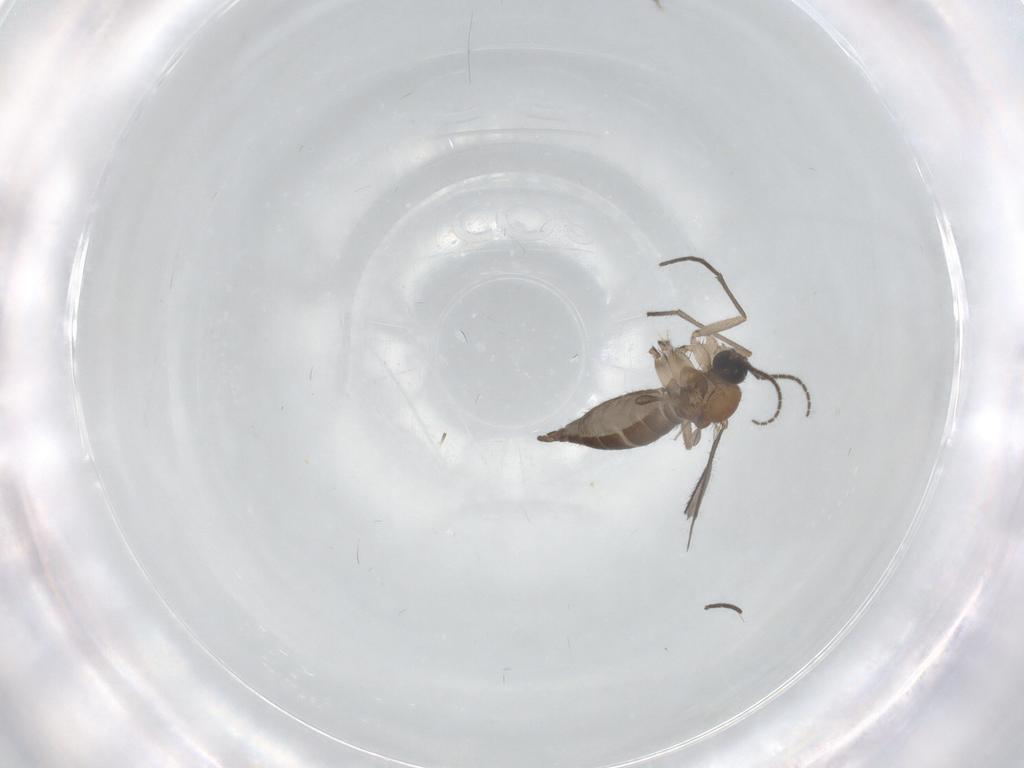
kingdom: Animalia
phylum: Arthropoda
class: Insecta
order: Diptera
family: Sciaridae
